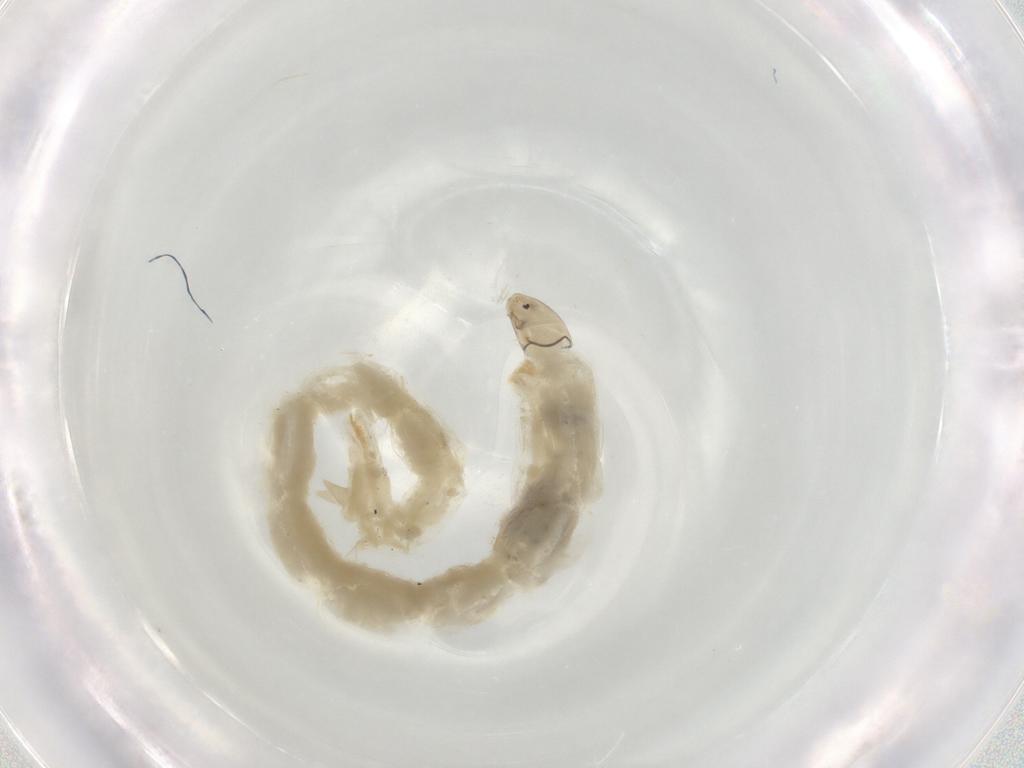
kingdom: Animalia
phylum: Arthropoda
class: Insecta
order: Diptera
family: Chironomidae
